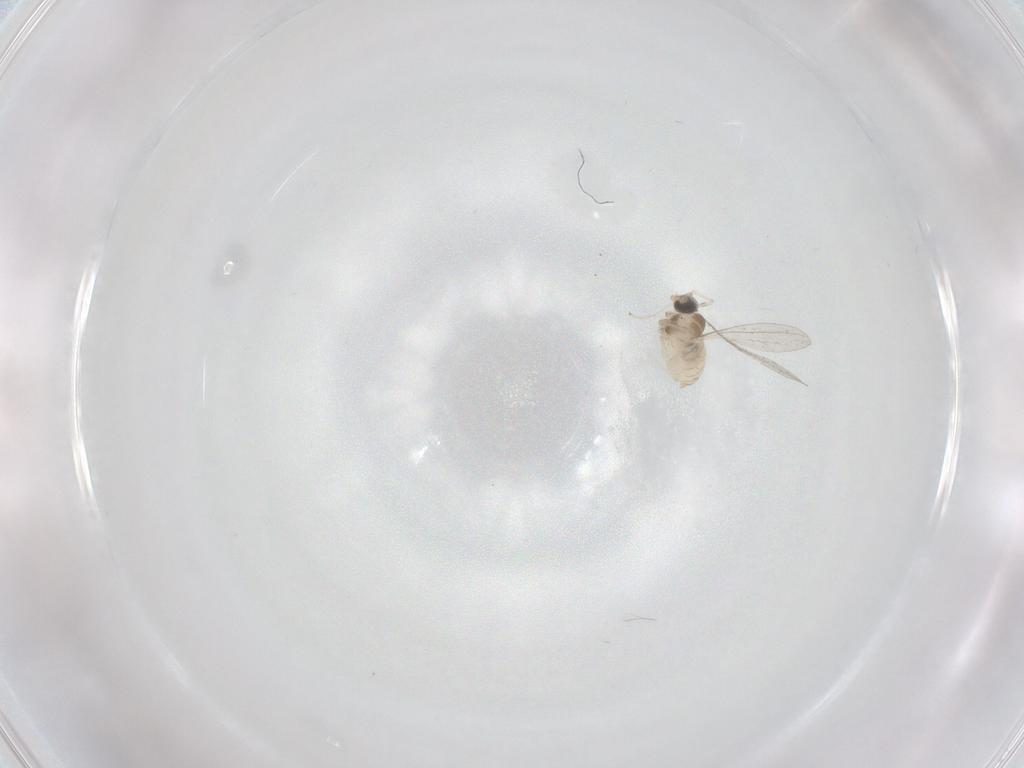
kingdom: Animalia
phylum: Arthropoda
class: Insecta
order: Diptera
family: Cecidomyiidae
